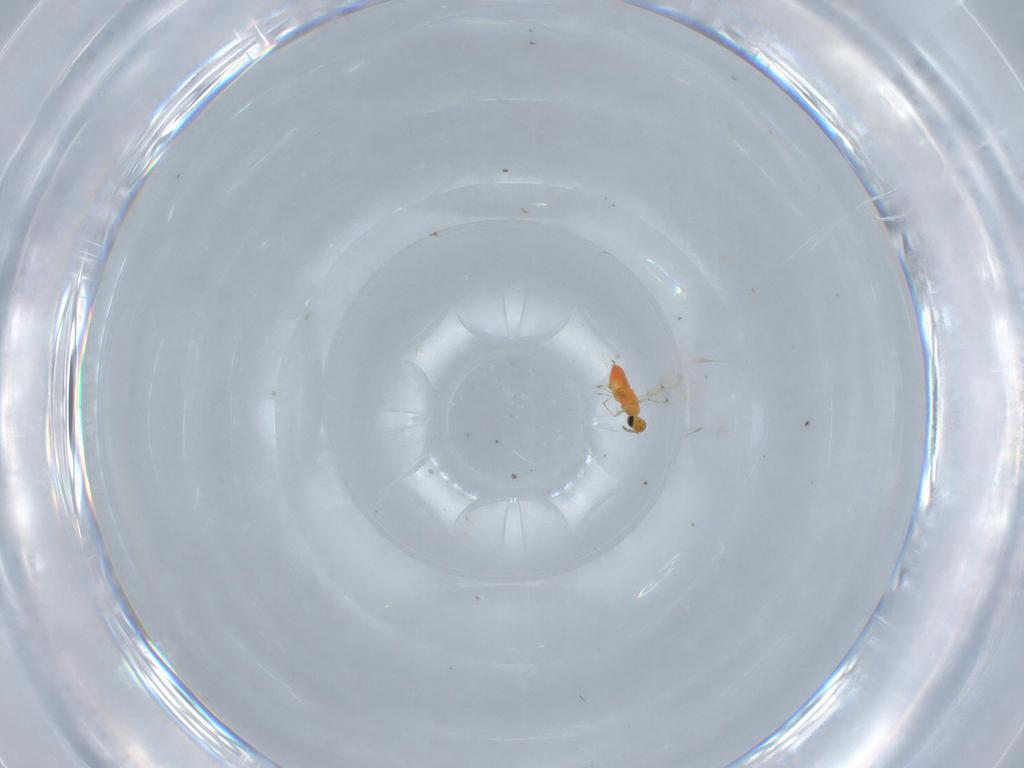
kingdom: Animalia
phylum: Arthropoda
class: Insecta
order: Hymenoptera
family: Trichogrammatidae
